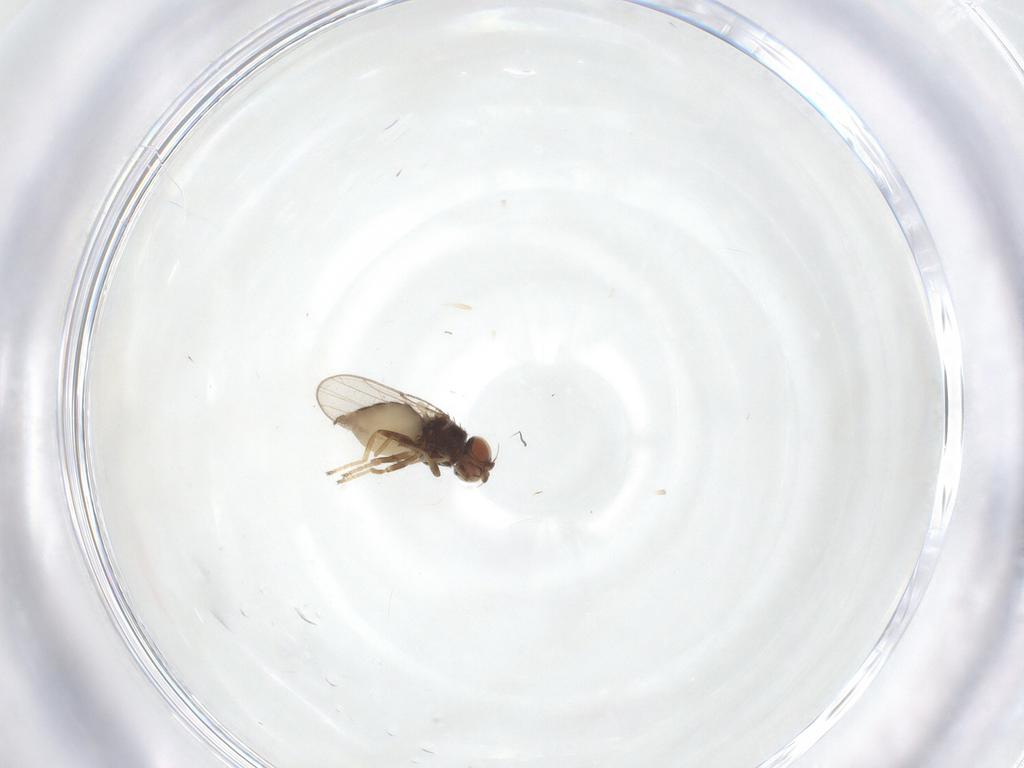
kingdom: Animalia
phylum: Arthropoda
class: Insecta
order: Diptera
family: Chloropidae
